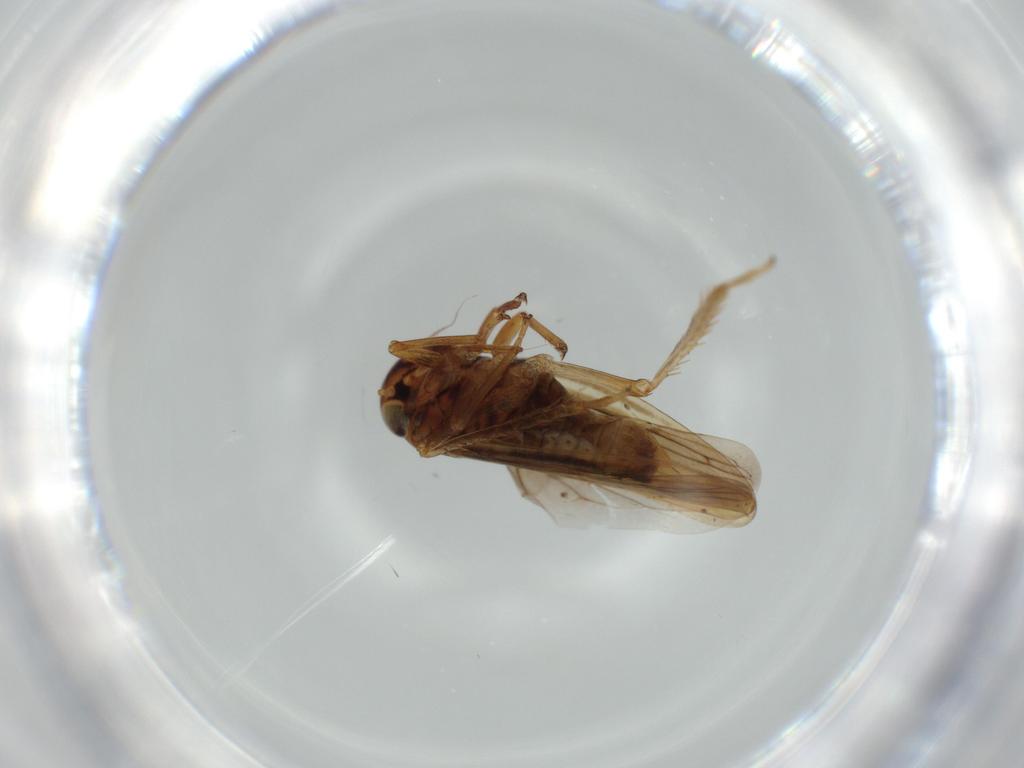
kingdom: Animalia
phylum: Arthropoda
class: Insecta
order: Hemiptera
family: Cicadellidae
